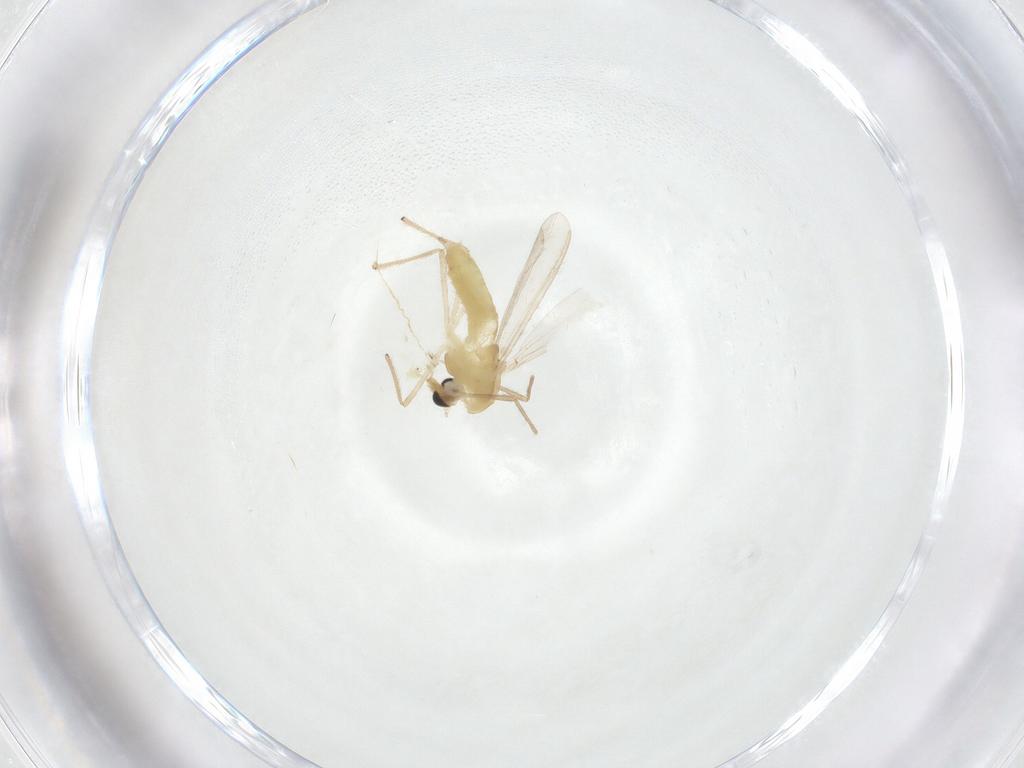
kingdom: Animalia
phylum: Arthropoda
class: Insecta
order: Diptera
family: Chironomidae
